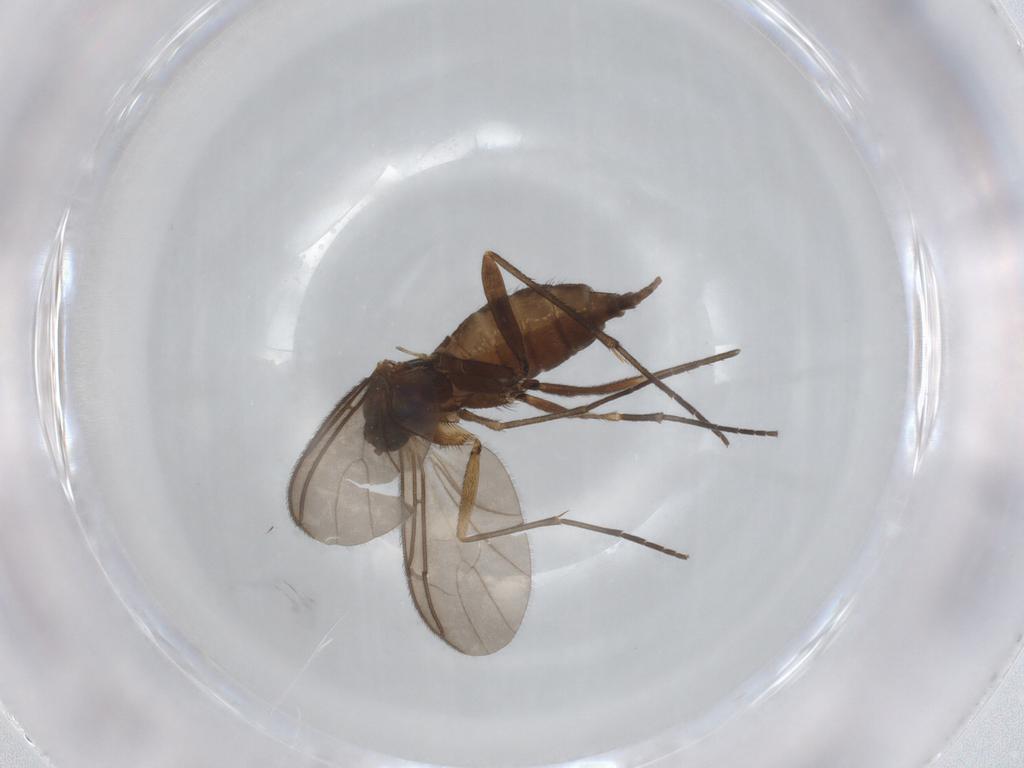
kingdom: Animalia
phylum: Arthropoda
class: Insecta
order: Diptera
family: Sciaridae
